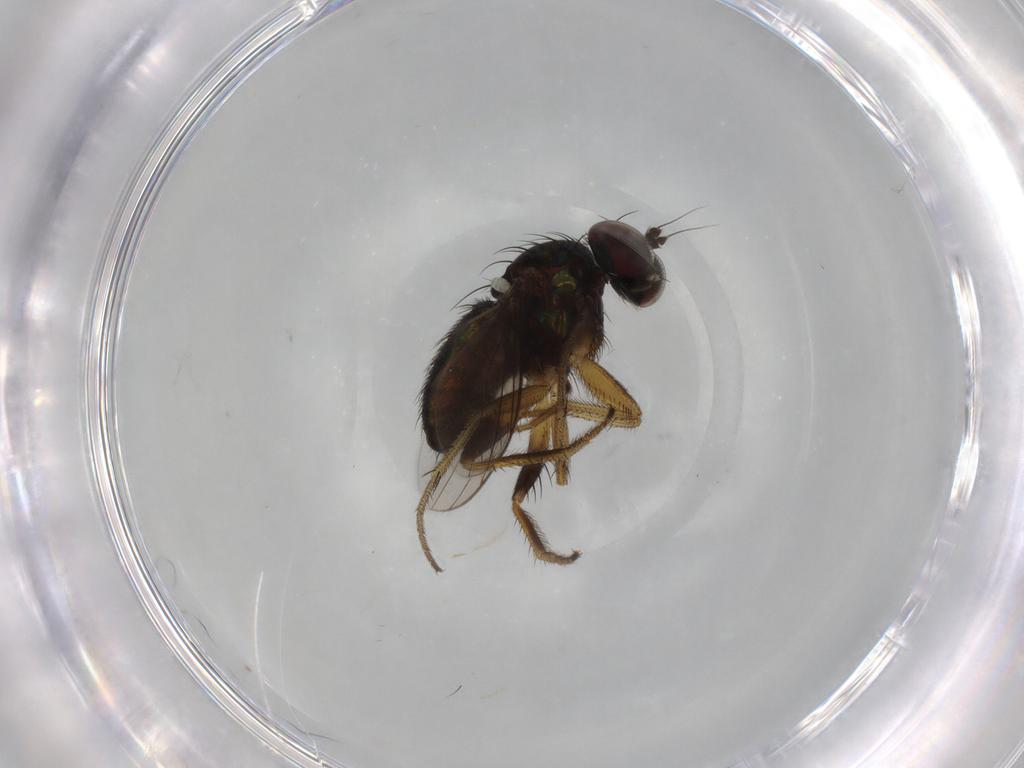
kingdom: Animalia
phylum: Arthropoda
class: Insecta
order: Diptera
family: Dolichopodidae
